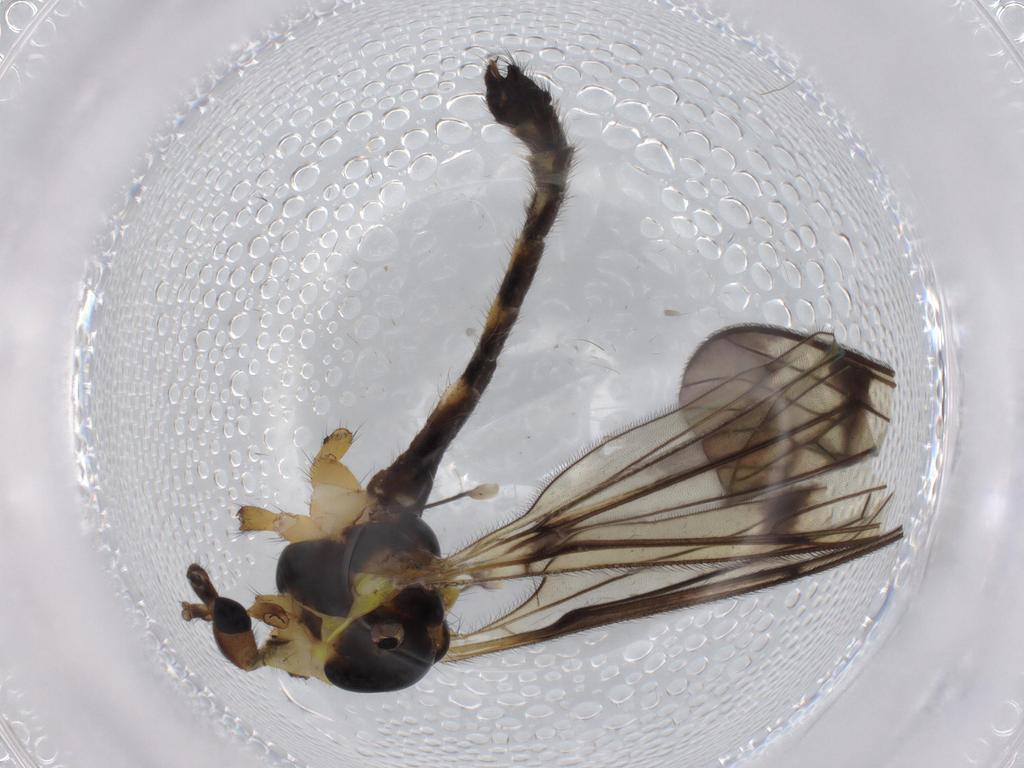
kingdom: Animalia
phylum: Arthropoda
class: Insecta
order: Diptera
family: Limoniidae
